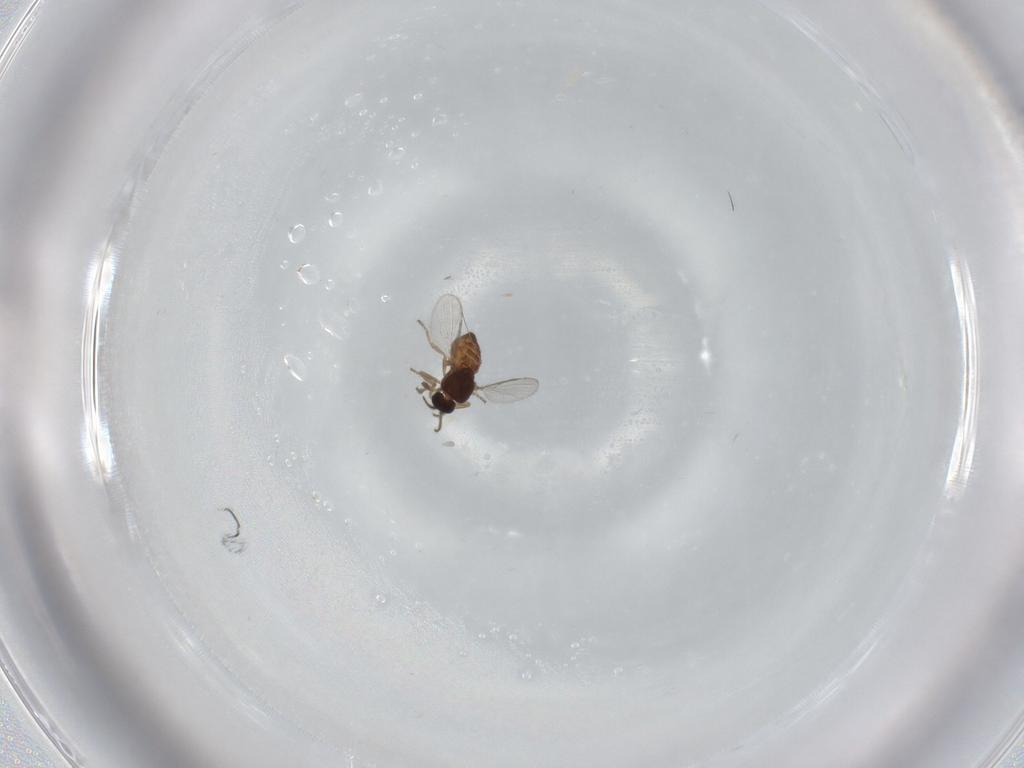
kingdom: Animalia
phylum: Arthropoda
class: Insecta
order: Diptera
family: Ceratopogonidae
